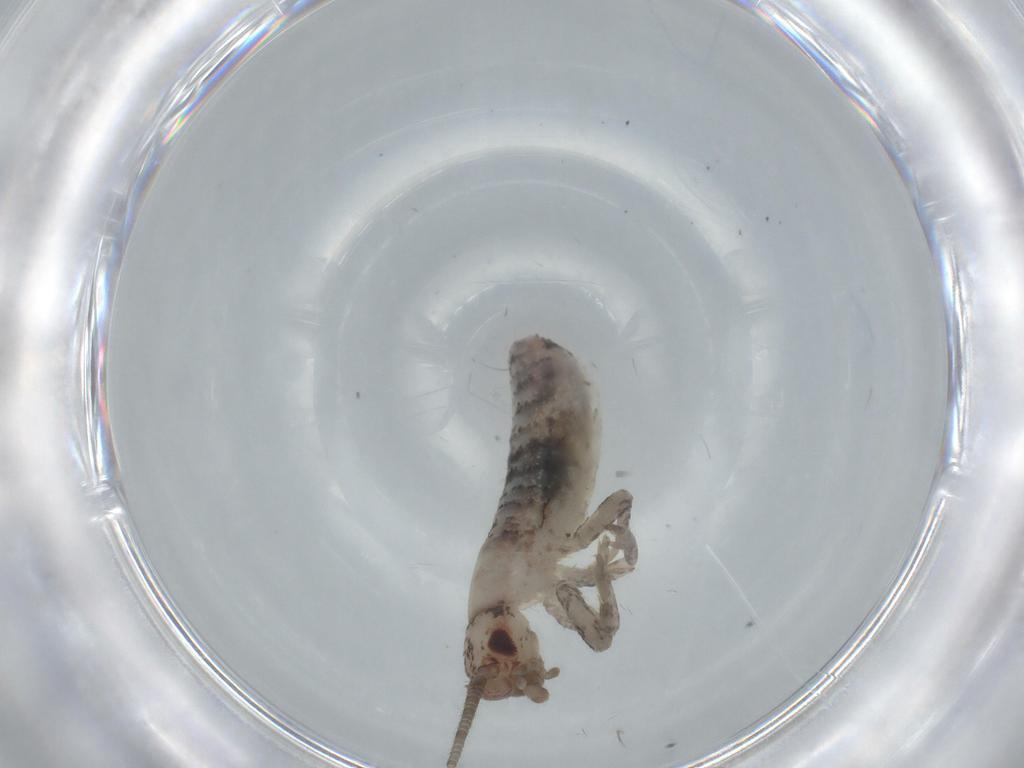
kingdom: Animalia
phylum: Arthropoda
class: Insecta
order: Orthoptera
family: Mogoplistidae
